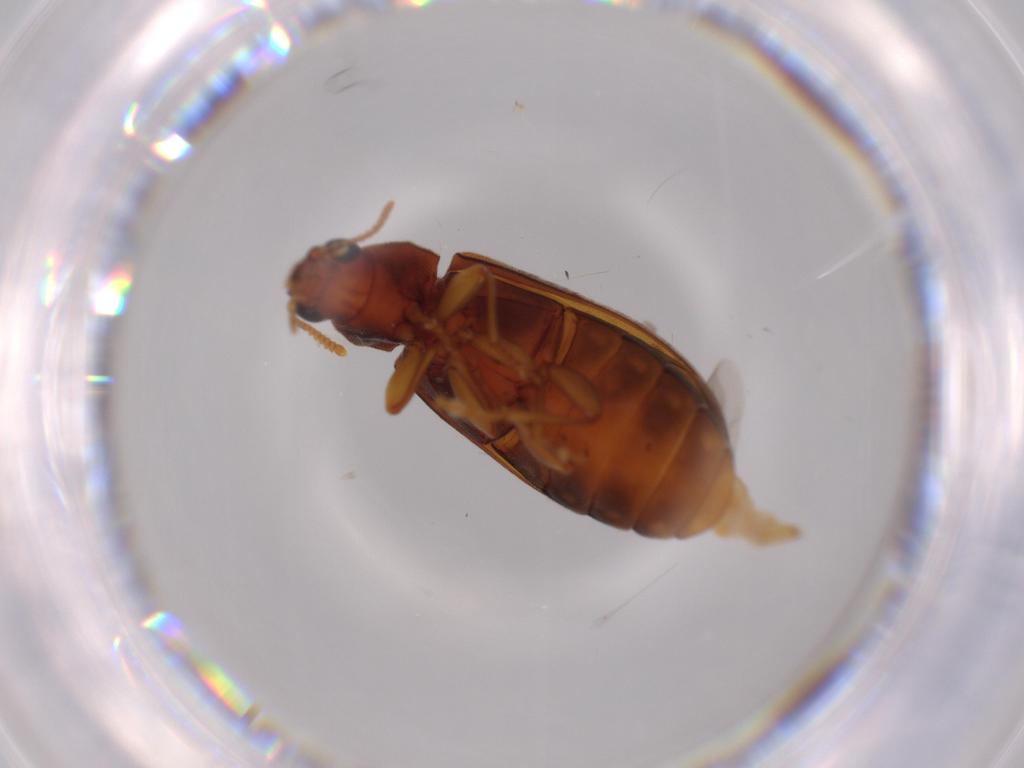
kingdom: Animalia
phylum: Arthropoda
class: Insecta
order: Coleoptera
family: Mycteridae
